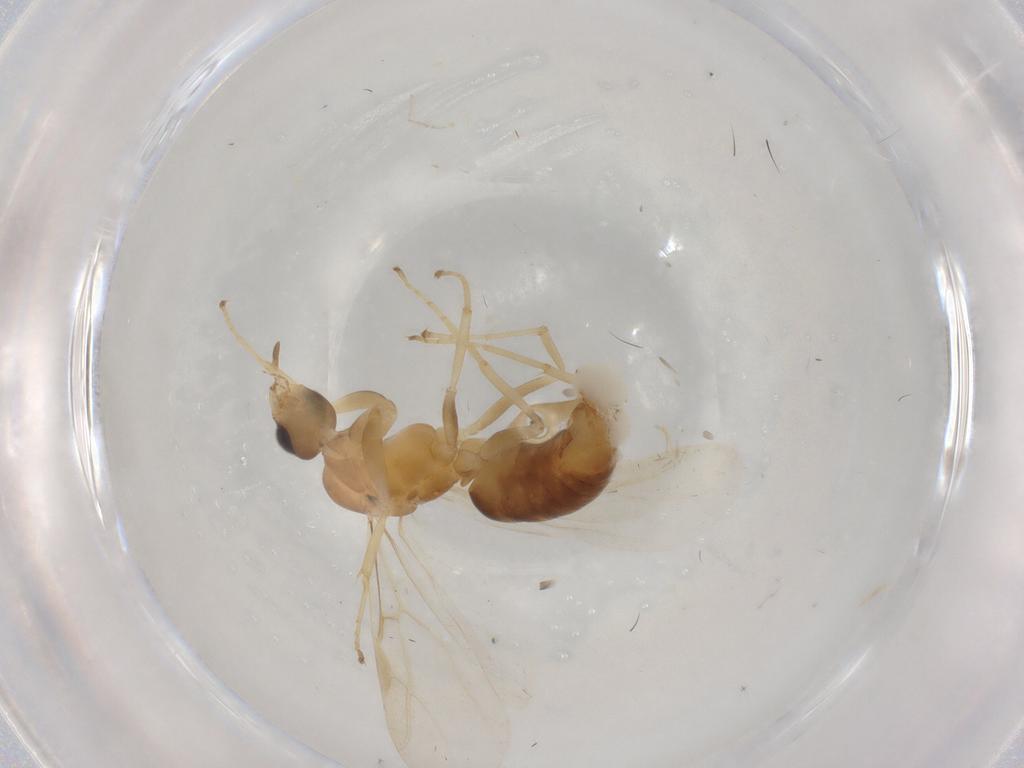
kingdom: Animalia
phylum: Arthropoda
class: Insecta
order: Hymenoptera
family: Formicidae
